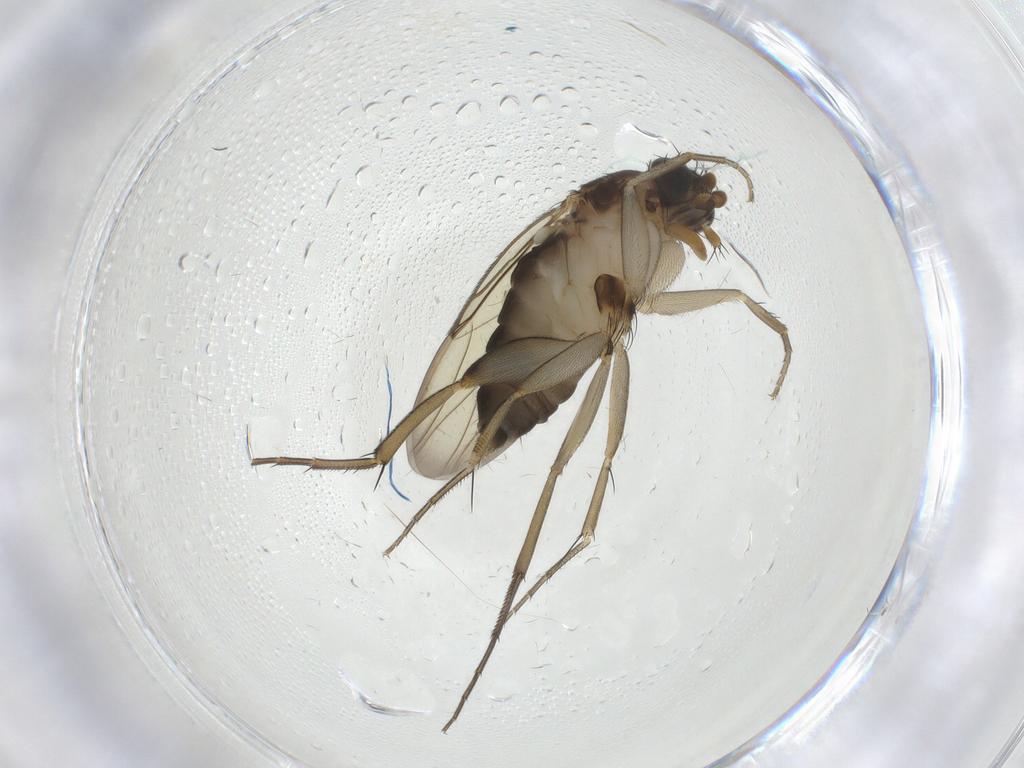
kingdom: Animalia
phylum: Arthropoda
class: Insecta
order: Diptera
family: Phoridae
